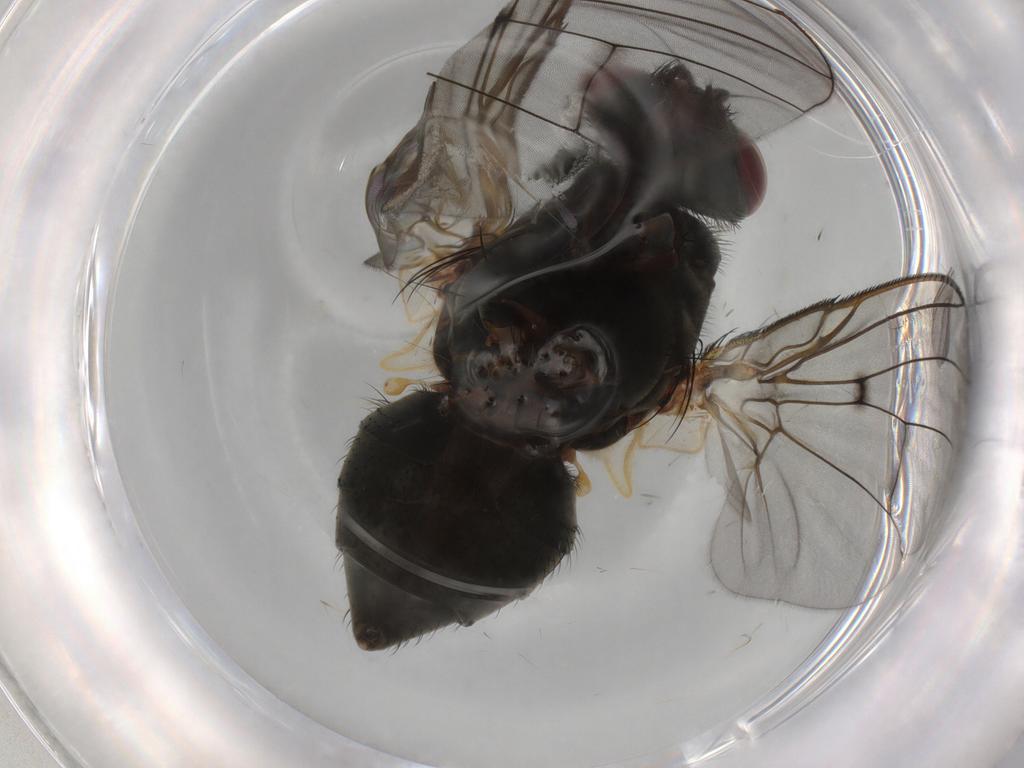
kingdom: Animalia
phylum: Arthropoda
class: Insecta
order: Diptera
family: Muscidae
